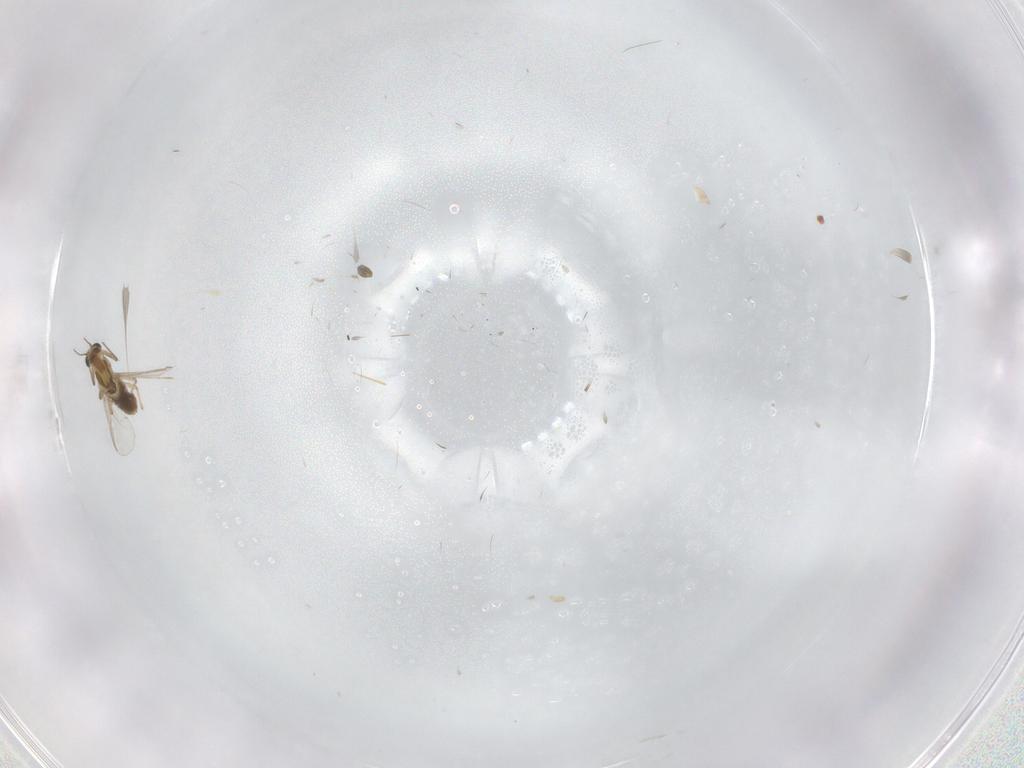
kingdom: Animalia
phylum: Arthropoda
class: Insecta
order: Diptera
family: Chironomidae
